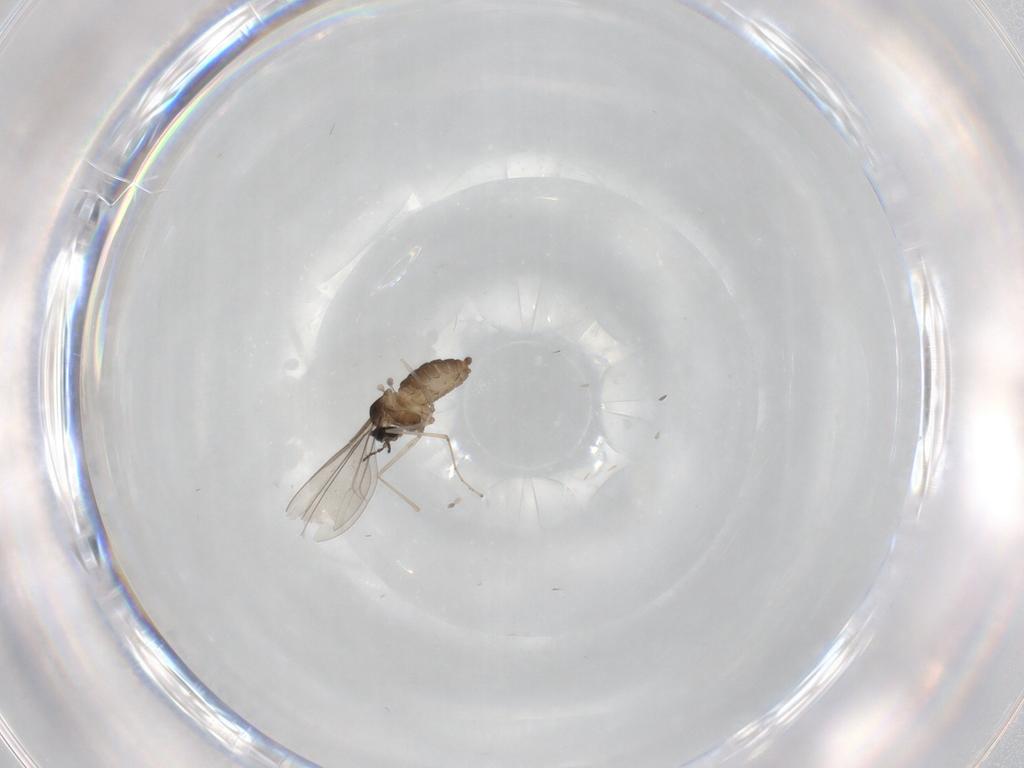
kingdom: Animalia
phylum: Arthropoda
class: Insecta
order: Diptera
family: Cecidomyiidae
